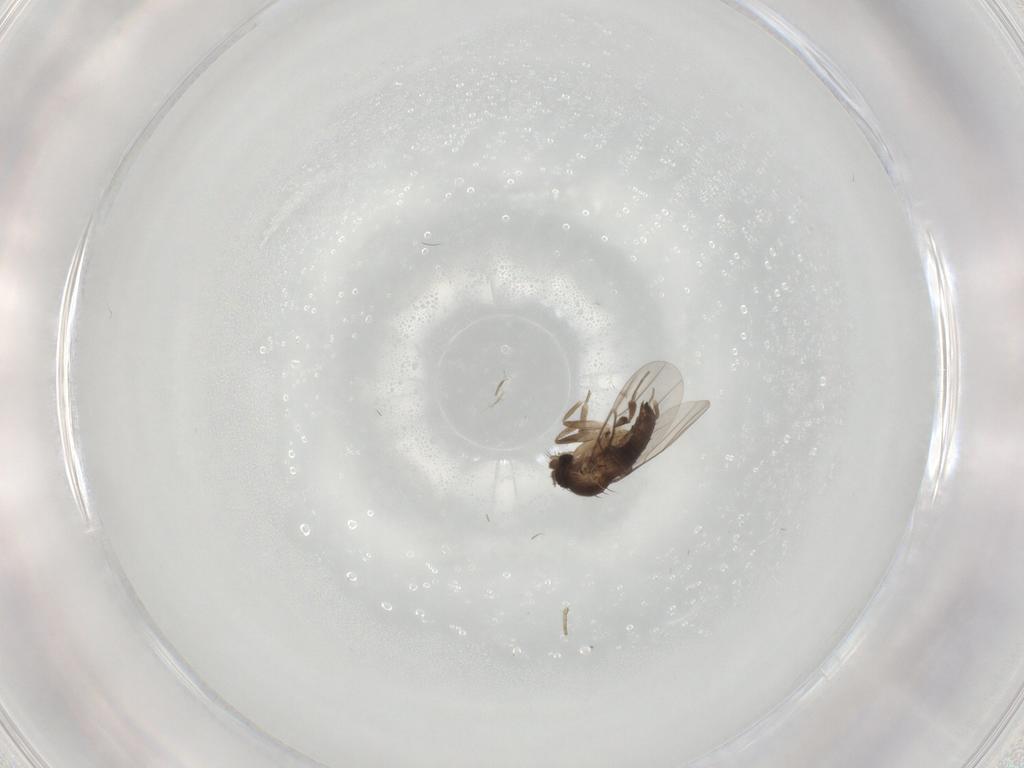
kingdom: Animalia
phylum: Arthropoda
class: Insecta
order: Diptera
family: Phoridae
